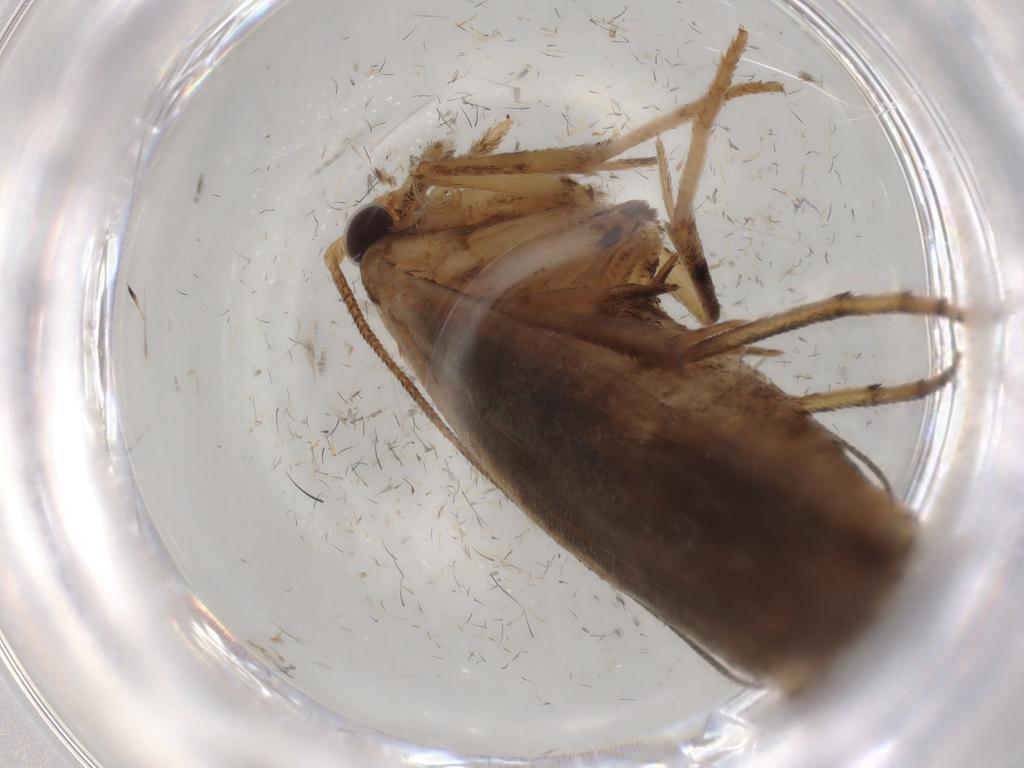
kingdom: Animalia
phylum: Arthropoda
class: Insecta
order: Lepidoptera
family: Yponomeutidae
